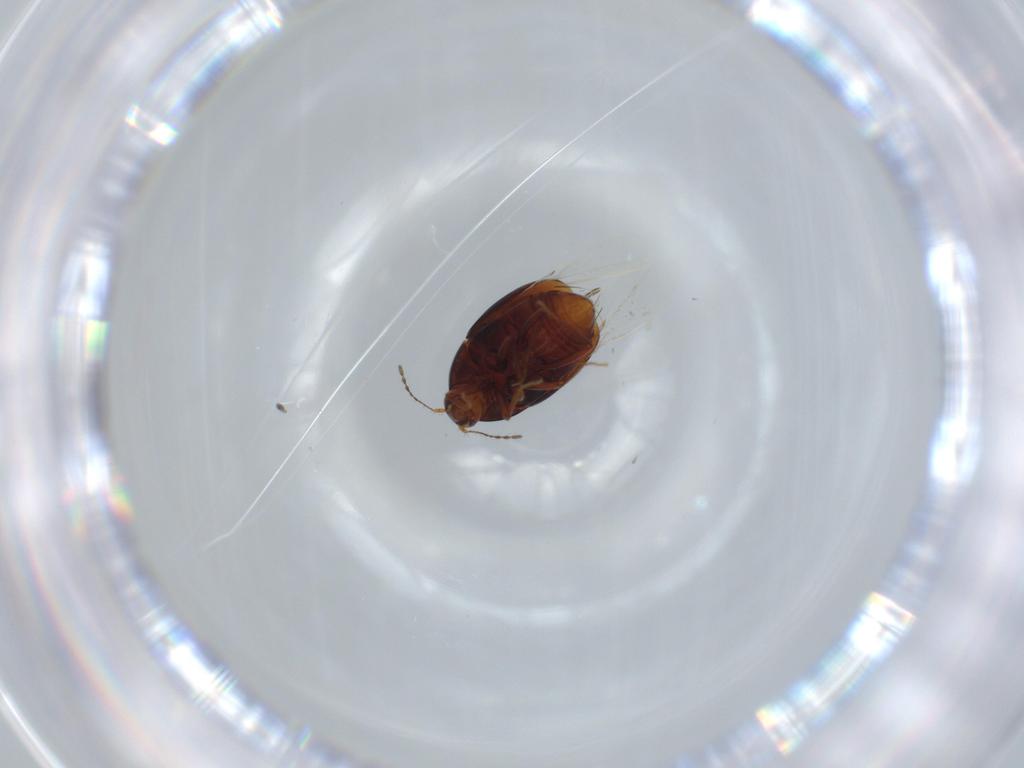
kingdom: Animalia
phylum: Arthropoda
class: Insecta
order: Coleoptera
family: Staphylinidae
